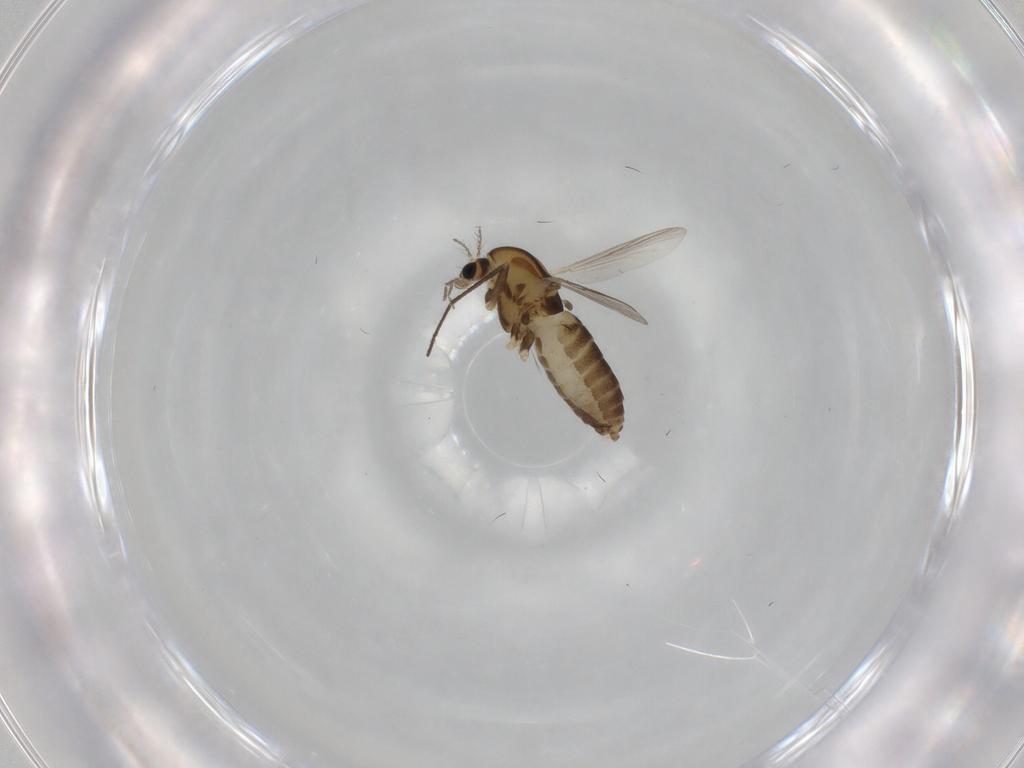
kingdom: Animalia
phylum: Arthropoda
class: Insecta
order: Diptera
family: Chironomidae
